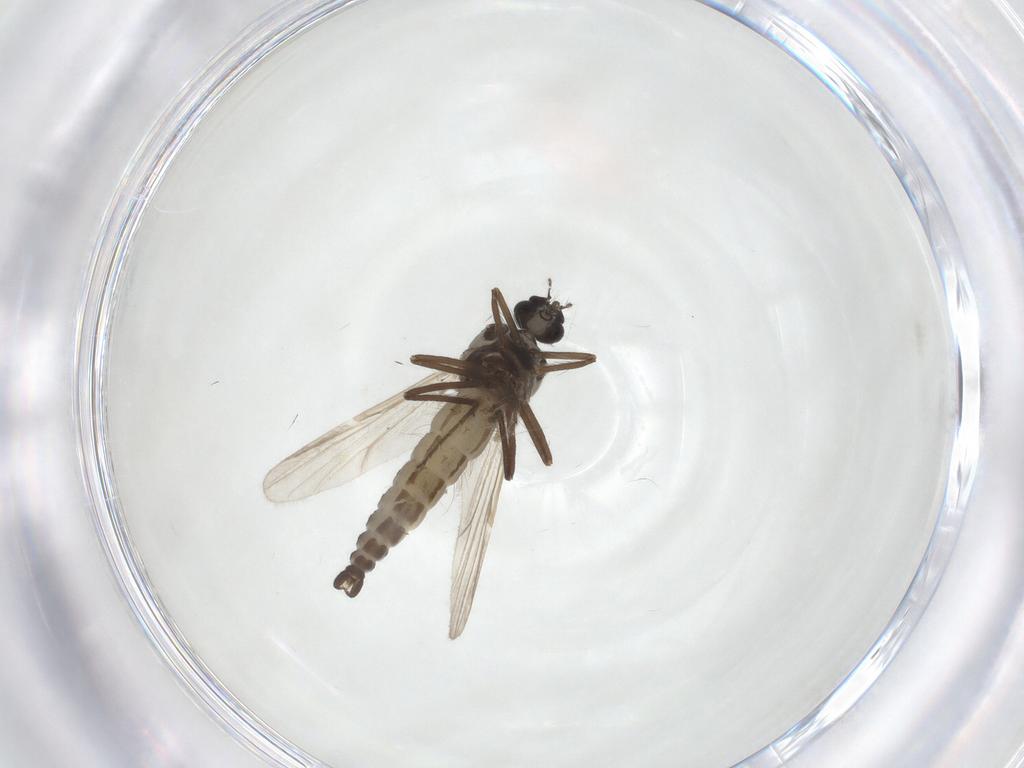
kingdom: Animalia
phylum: Arthropoda
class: Insecta
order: Diptera
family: Ceratopogonidae
